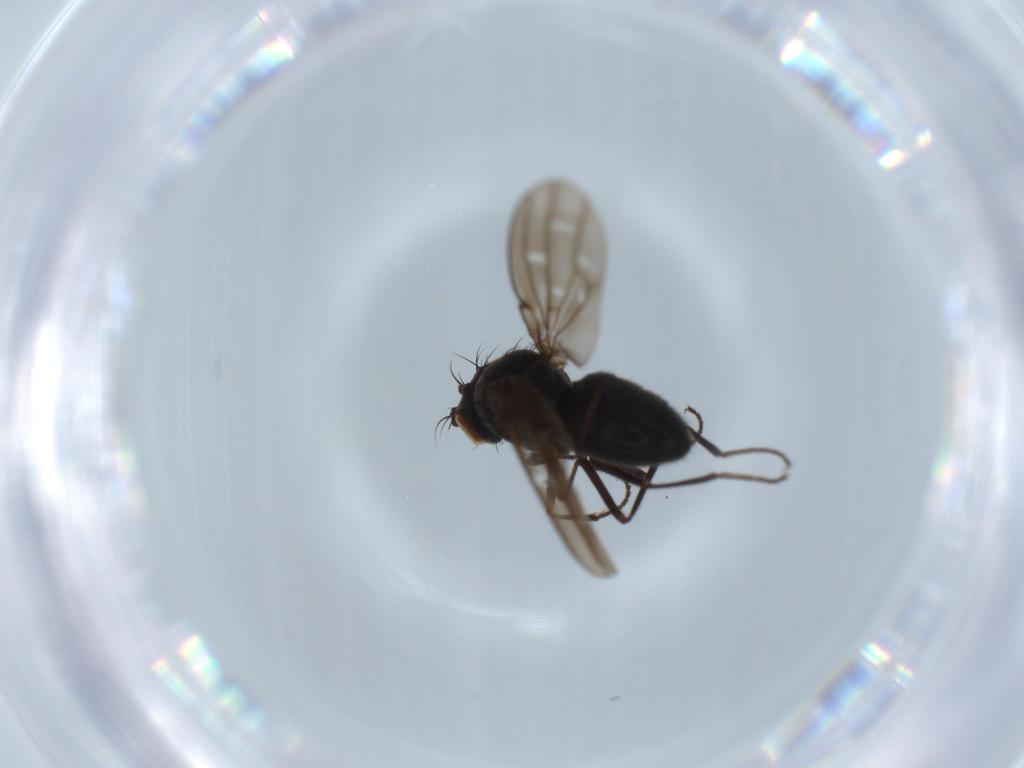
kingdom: Animalia
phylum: Arthropoda
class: Insecta
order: Diptera
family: Ephydridae
